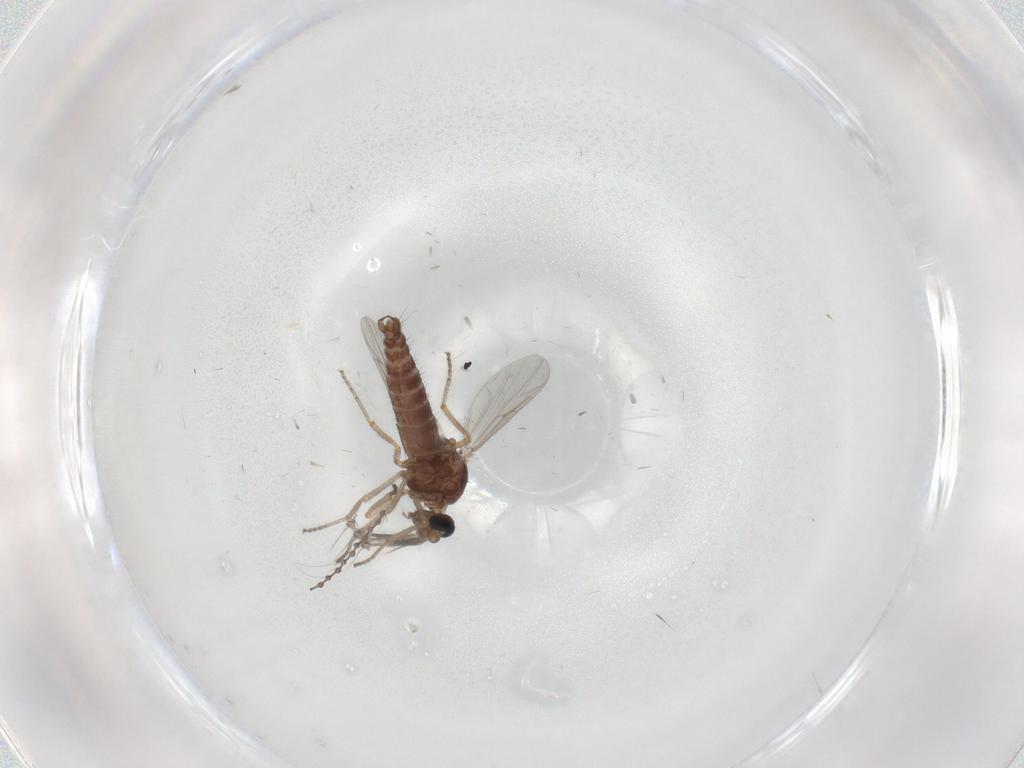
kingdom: Animalia
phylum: Arthropoda
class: Insecta
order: Diptera
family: Ceratopogonidae
